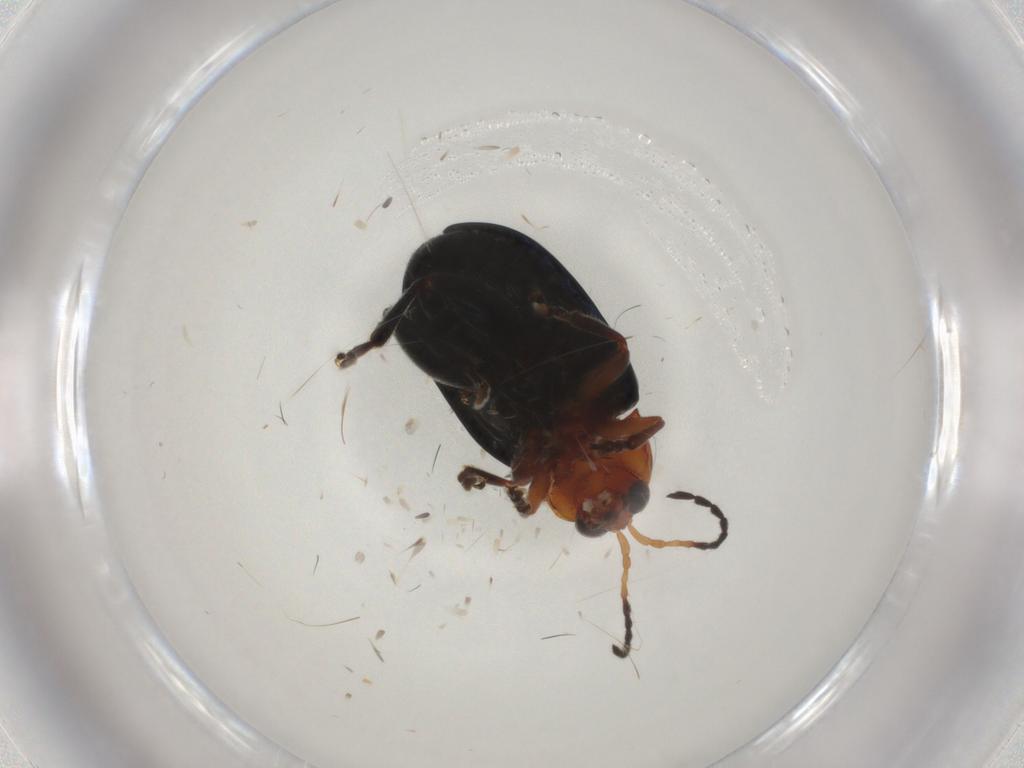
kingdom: Animalia
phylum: Arthropoda
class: Insecta
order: Coleoptera
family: Chrysomelidae
